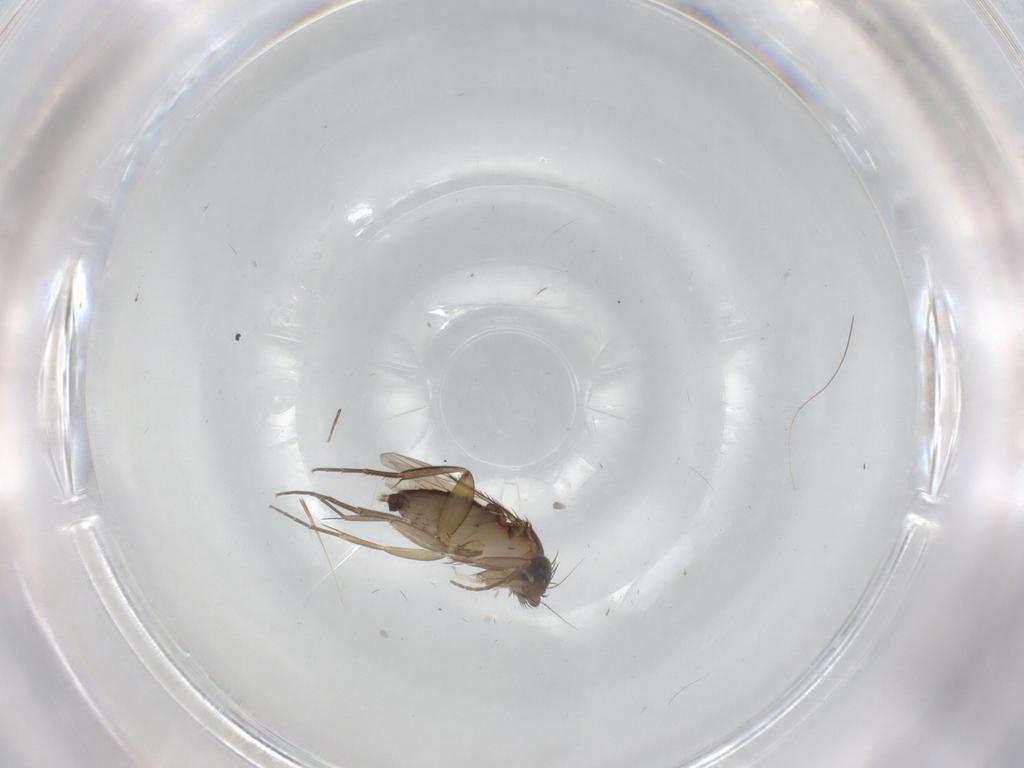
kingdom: Animalia
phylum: Arthropoda
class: Insecta
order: Diptera
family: Phoridae
